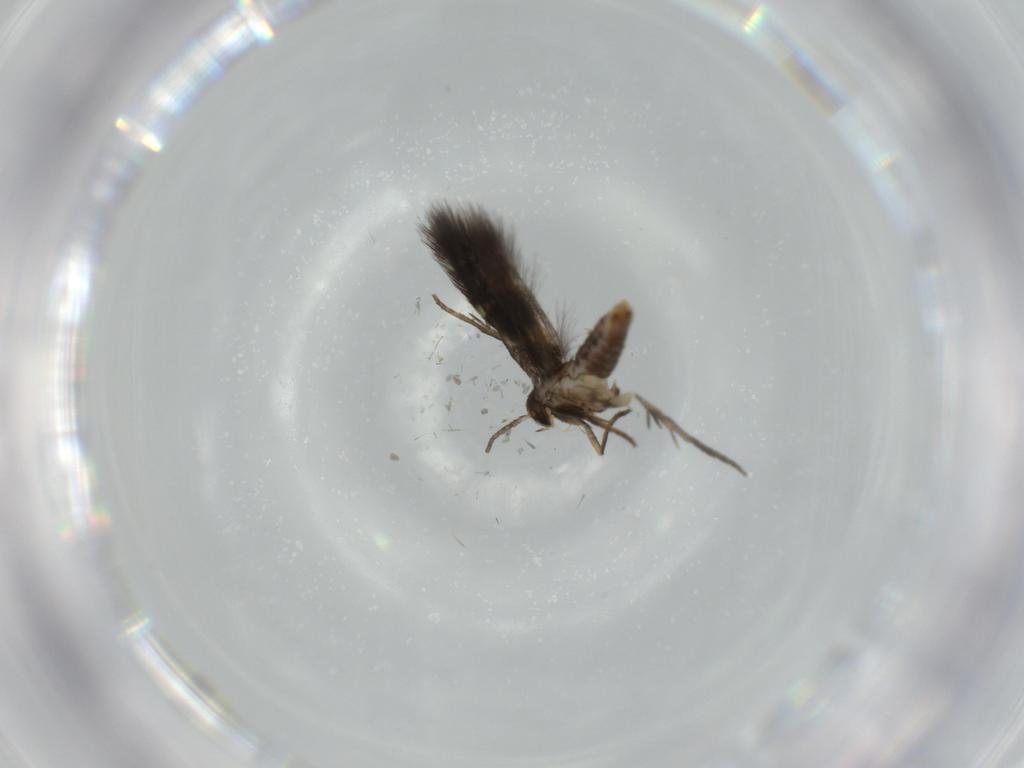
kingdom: Animalia
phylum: Arthropoda
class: Insecta
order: Lepidoptera
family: Heliozelidae
